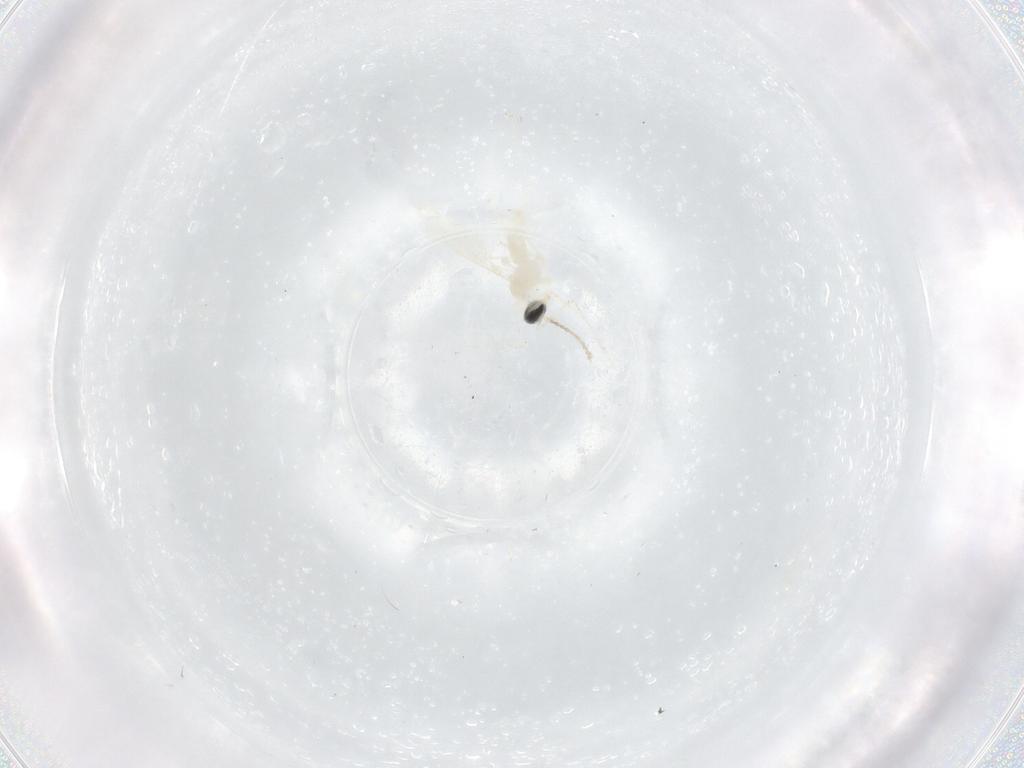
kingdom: Animalia
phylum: Arthropoda
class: Insecta
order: Diptera
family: Cecidomyiidae
